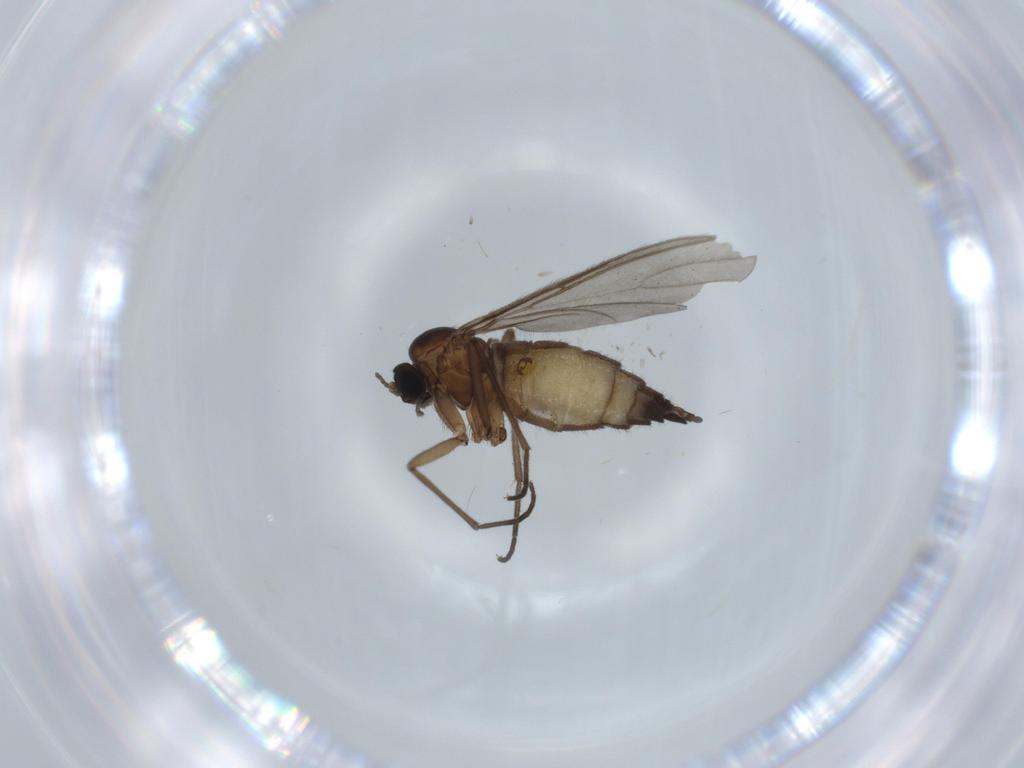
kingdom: Animalia
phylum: Arthropoda
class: Insecta
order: Diptera
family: Sciaridae
